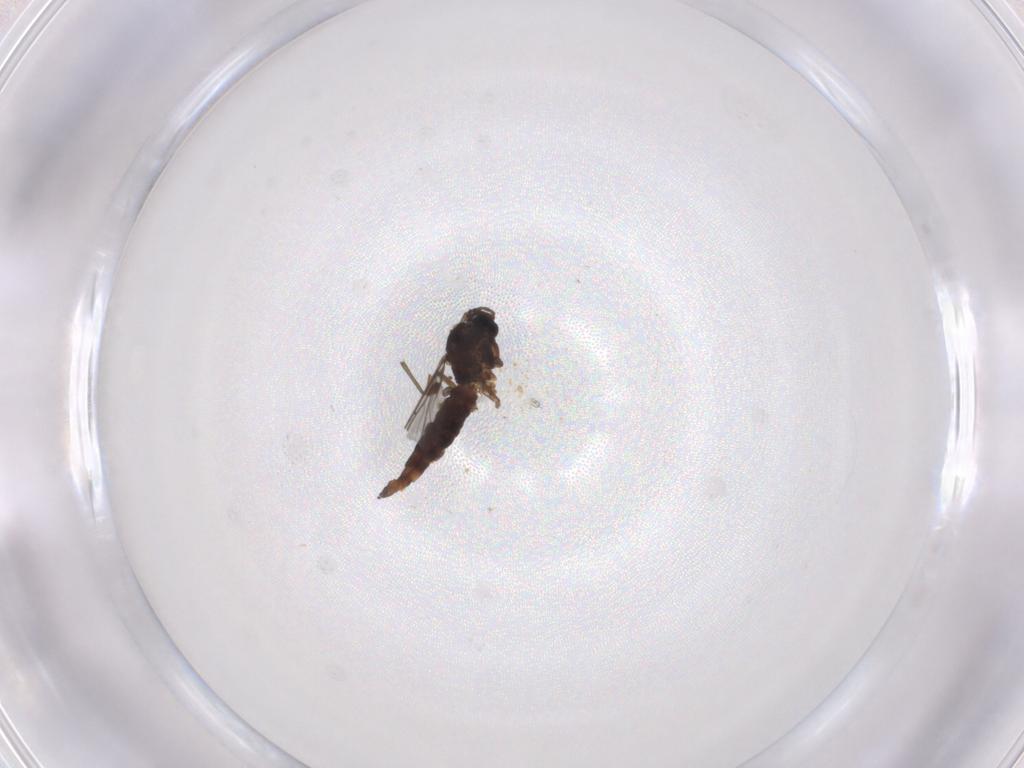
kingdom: Animalia
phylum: Arthropoda
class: Insecta
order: Diptera
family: Cecidomyiidae
